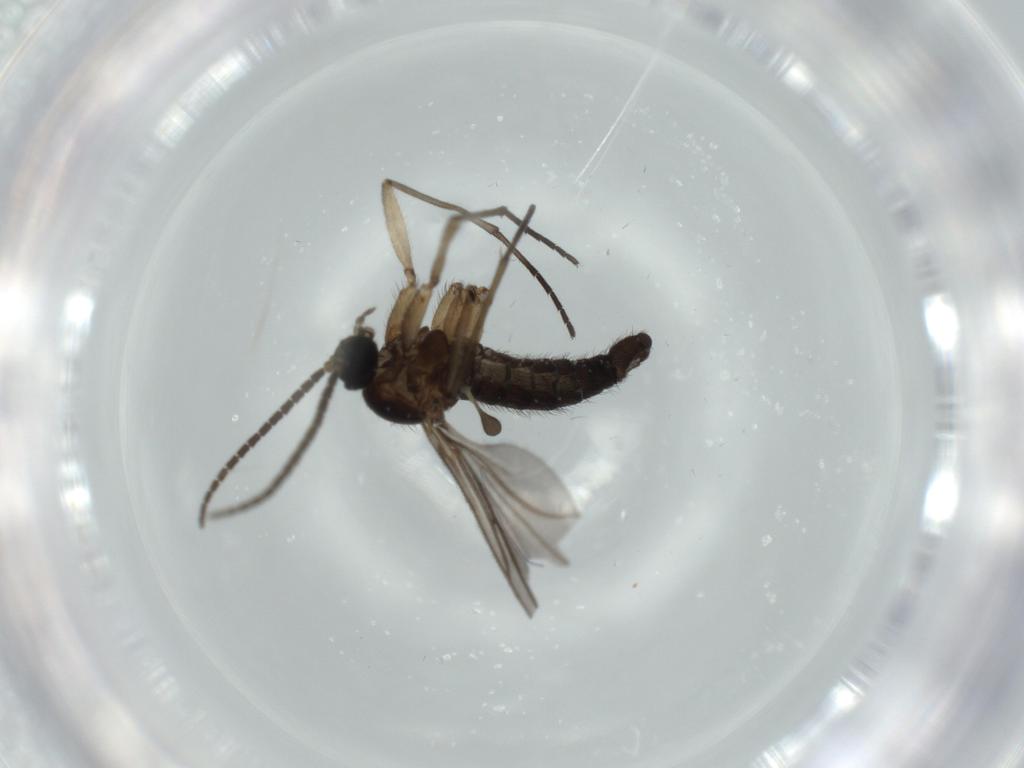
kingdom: Animalia
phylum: Arthropoda
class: Insecta
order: Diptera
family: Sciaridae
